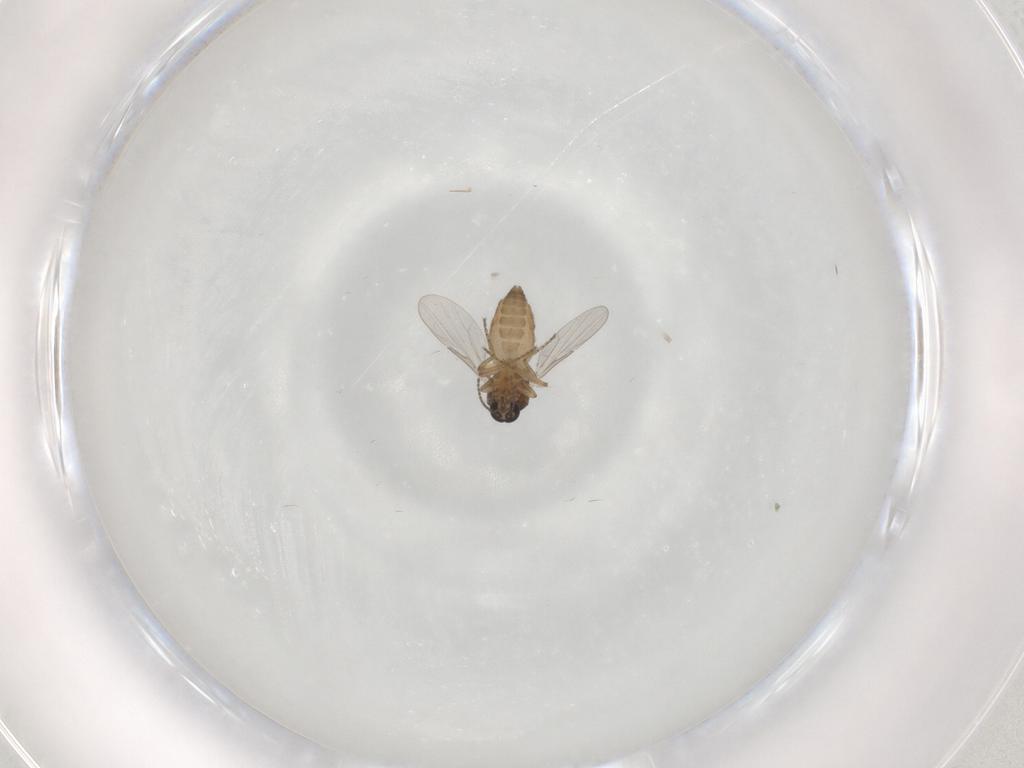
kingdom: Animalia
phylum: Arthropoda
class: Insecta
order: Diptera
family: Ceratopogonidae
